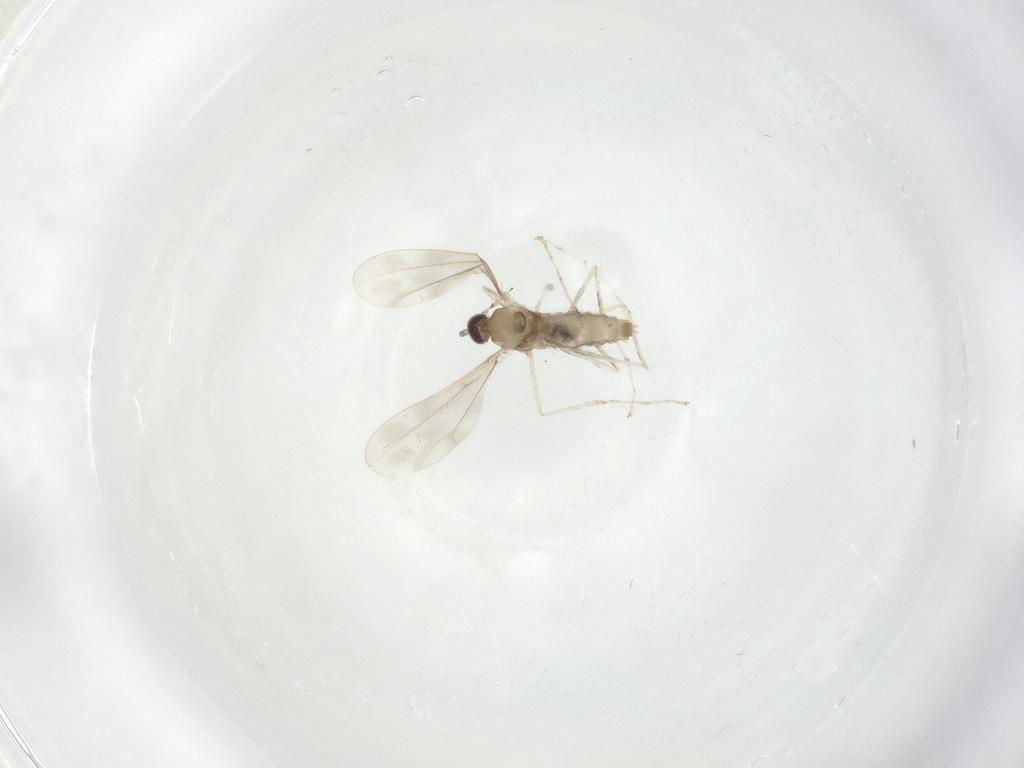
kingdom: Animalia
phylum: Arthropoda
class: Insecta
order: Diptera
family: Cecidomyiidae
